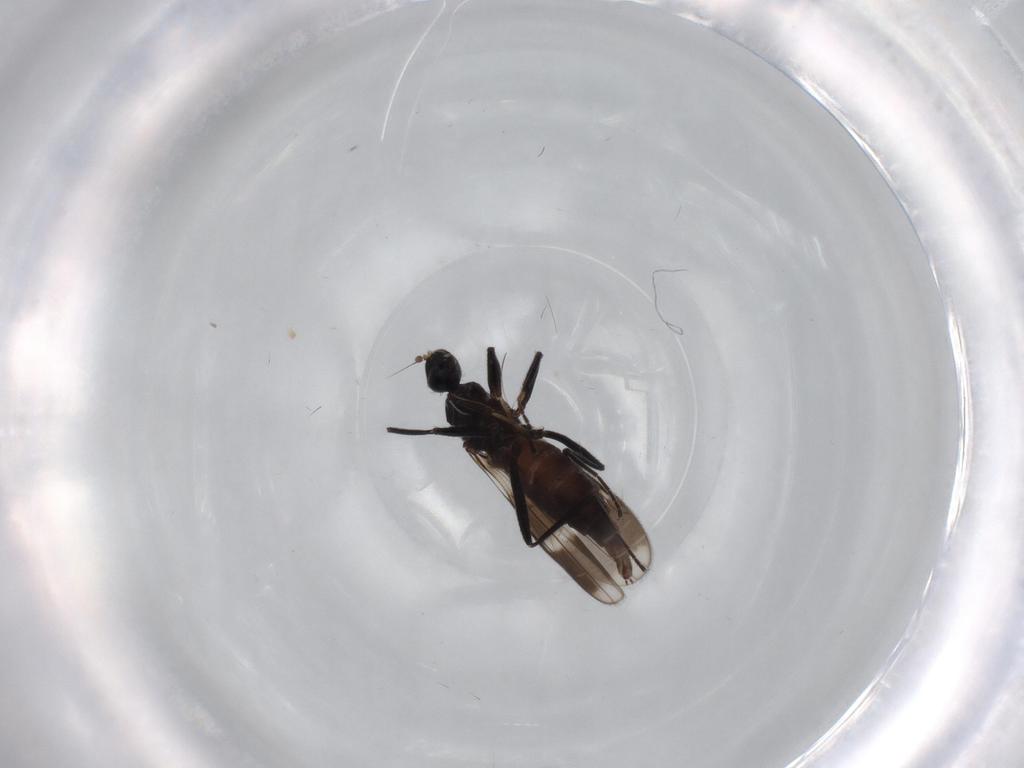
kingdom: Animalia
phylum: Arthropoda
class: Insecta
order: Diptera
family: Hybotidae
